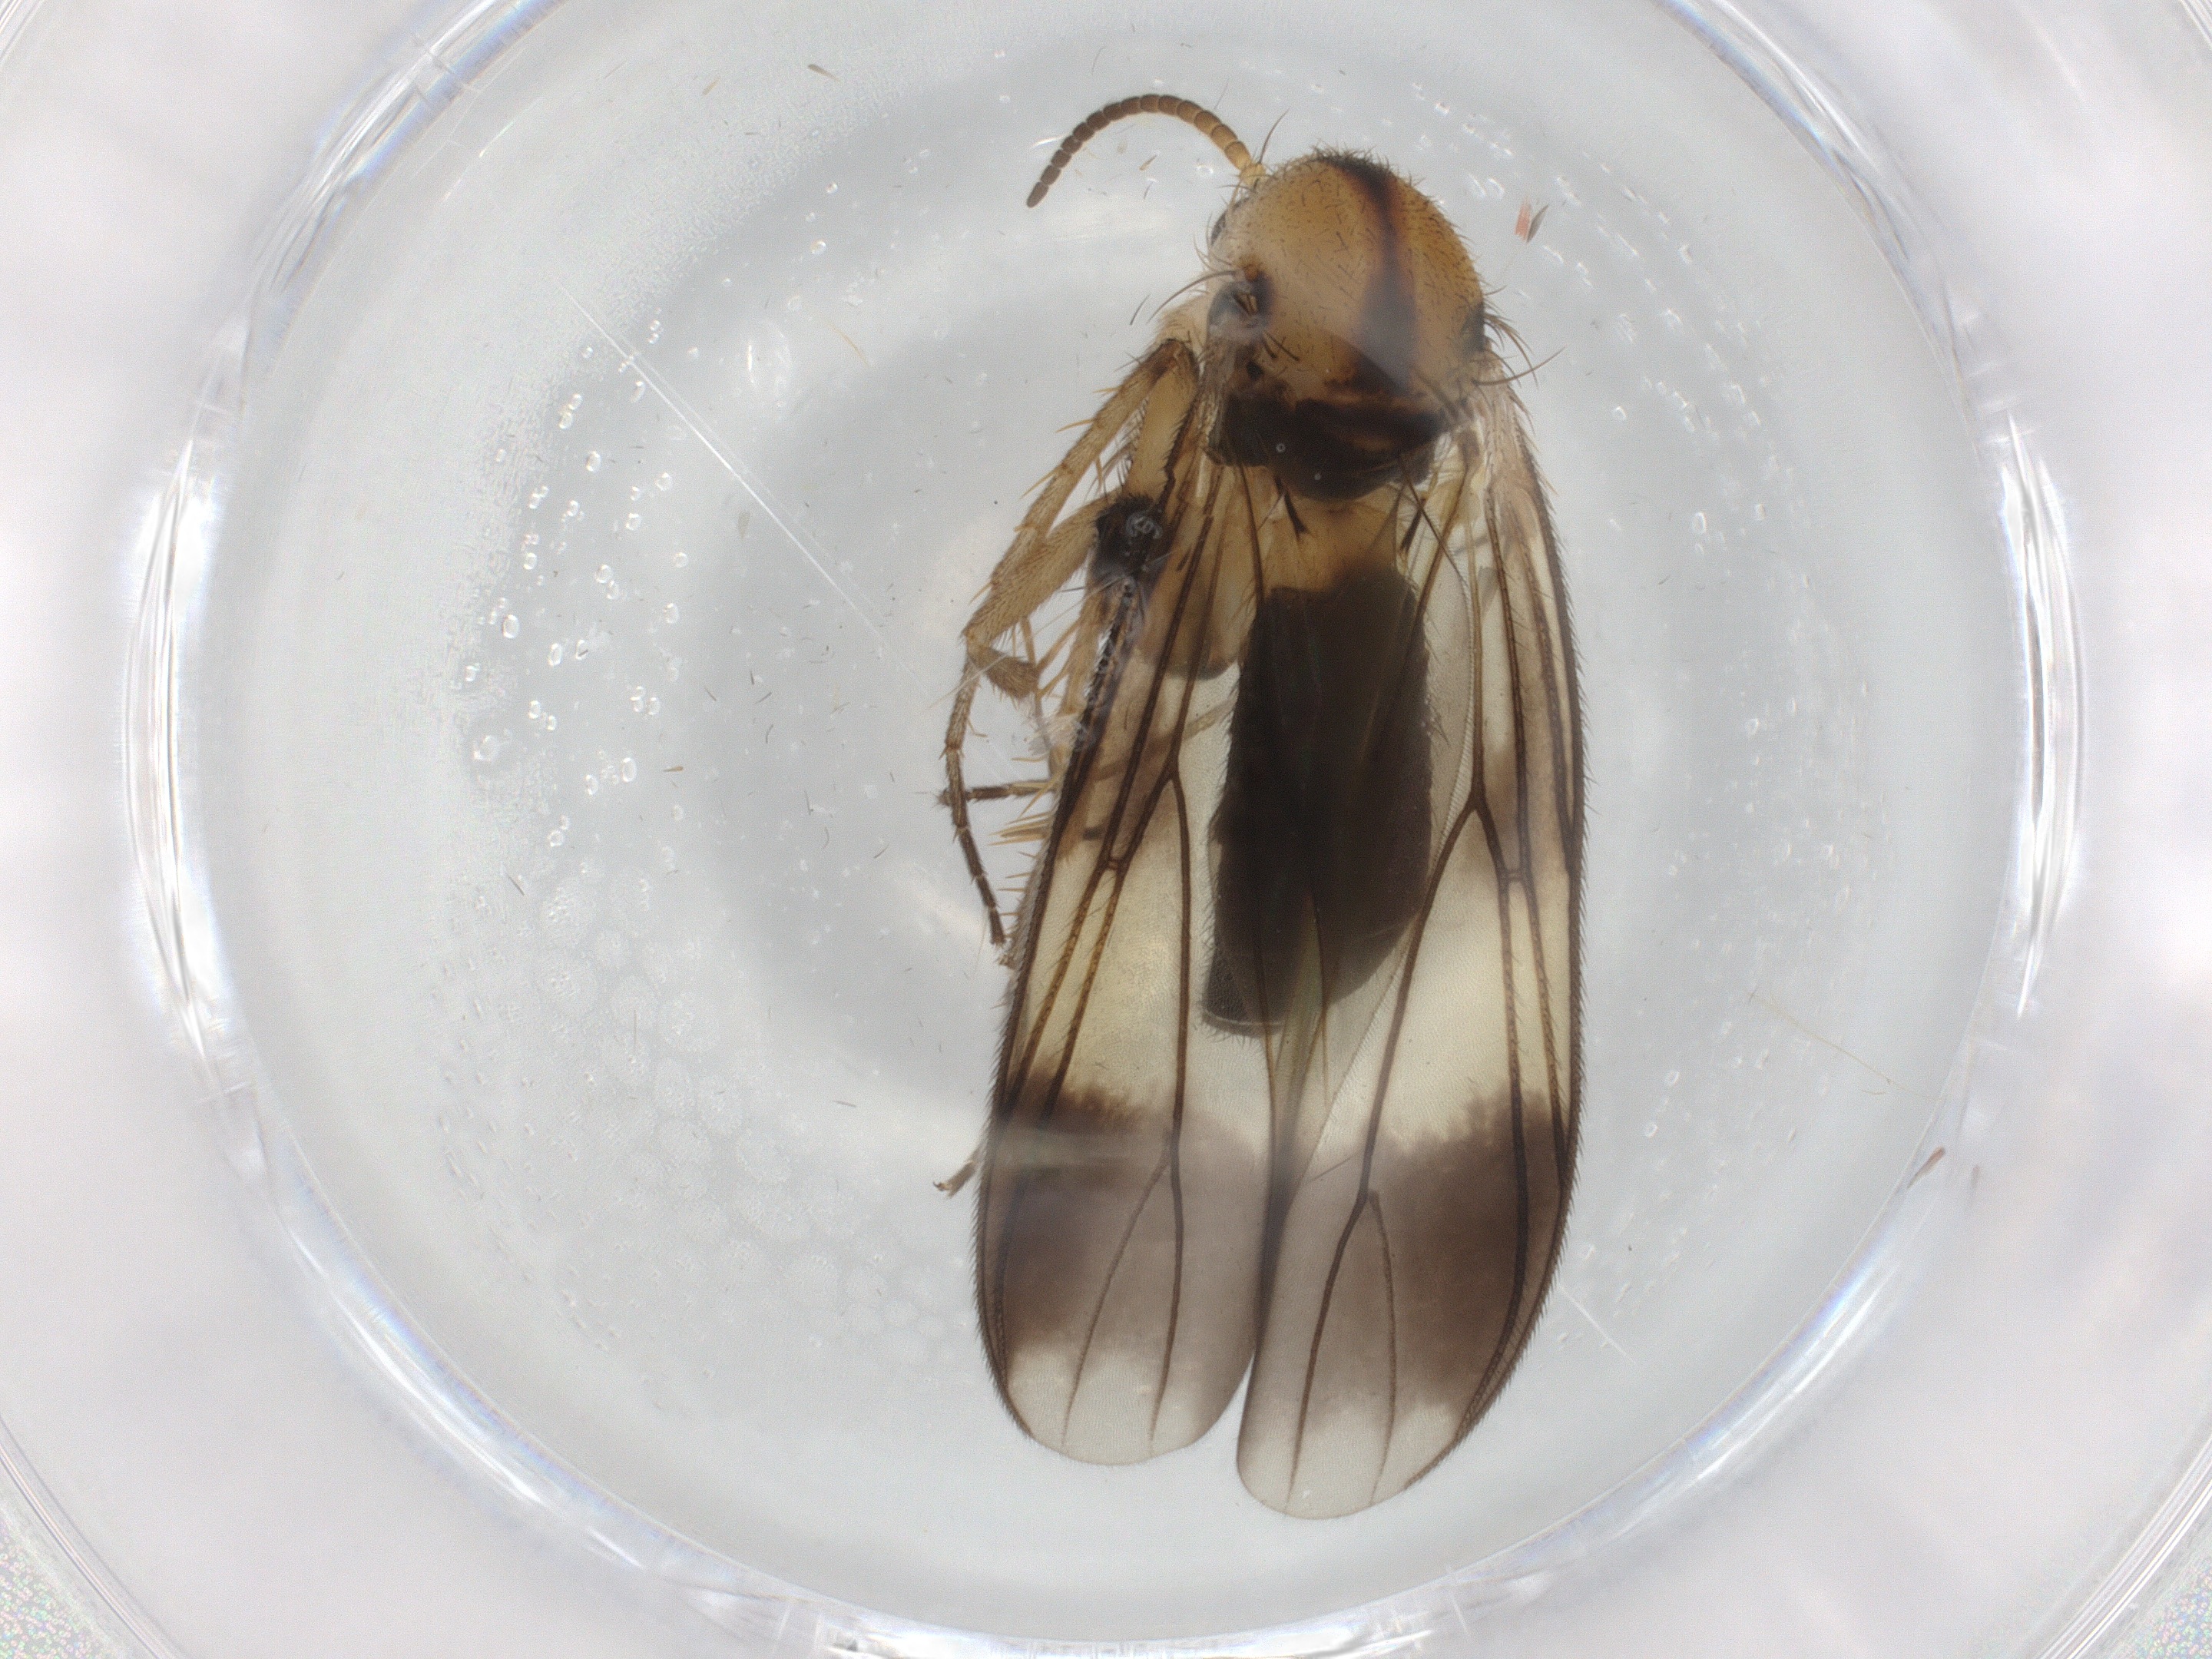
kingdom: Animalia
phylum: Arthropoda
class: Insecta
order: Diptera
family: Mycetophilidae
